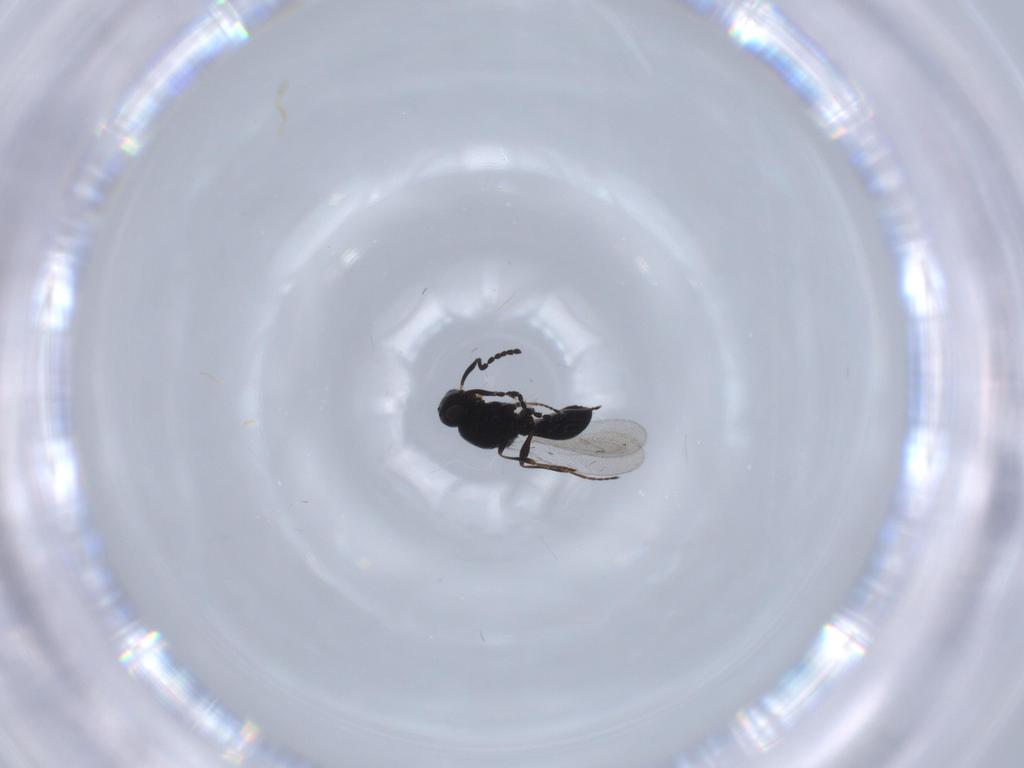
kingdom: Animalia
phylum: Arthropoda
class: Insecta
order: Hymenoptera
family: Platygastridae
